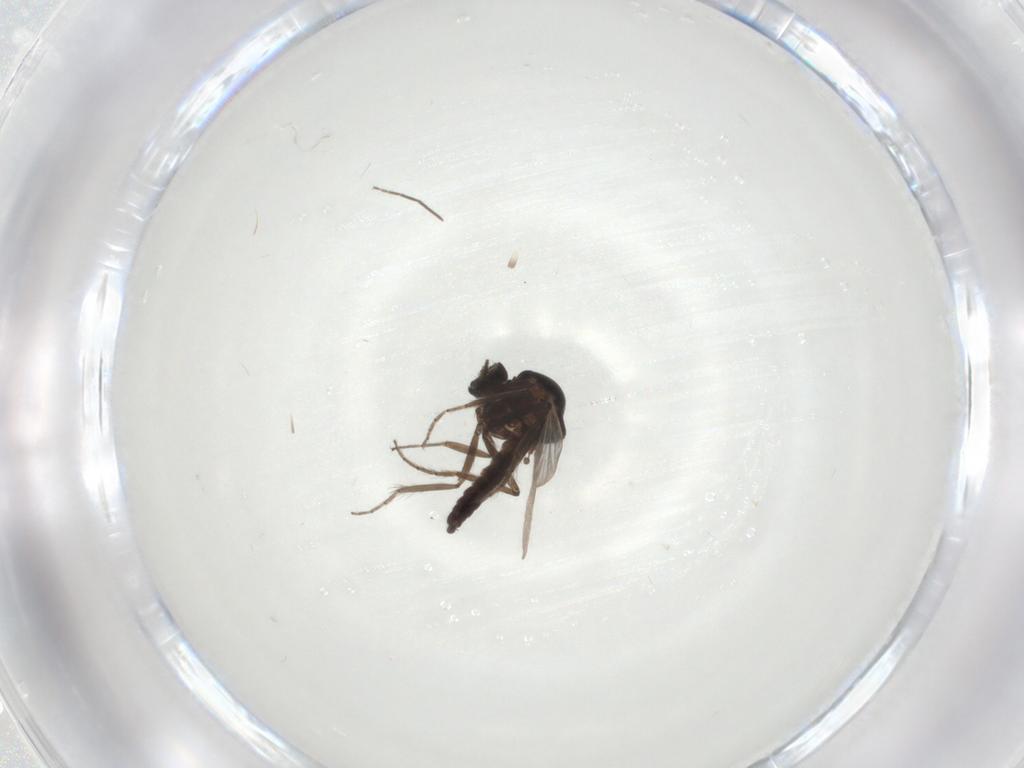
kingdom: Animalia
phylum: Arthropoda
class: Insecta
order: Diptera
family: Ceratopogonidae
